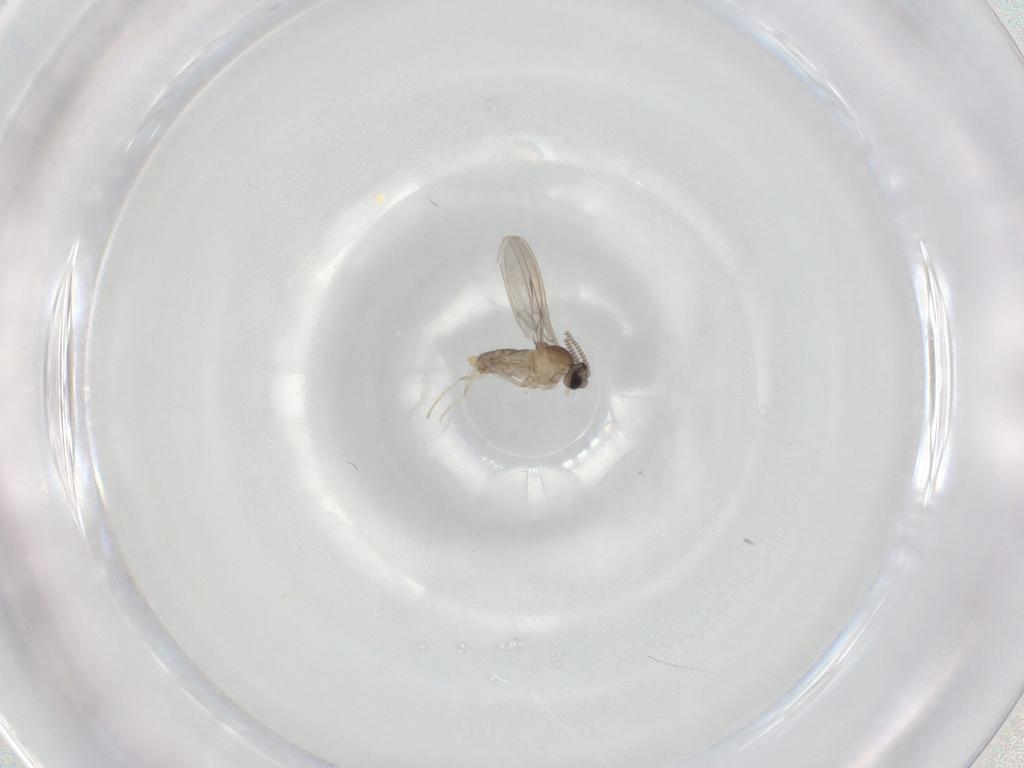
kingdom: Animalia
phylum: Arthropoda
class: Insecta
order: Diptera
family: Cecidomyiidae
